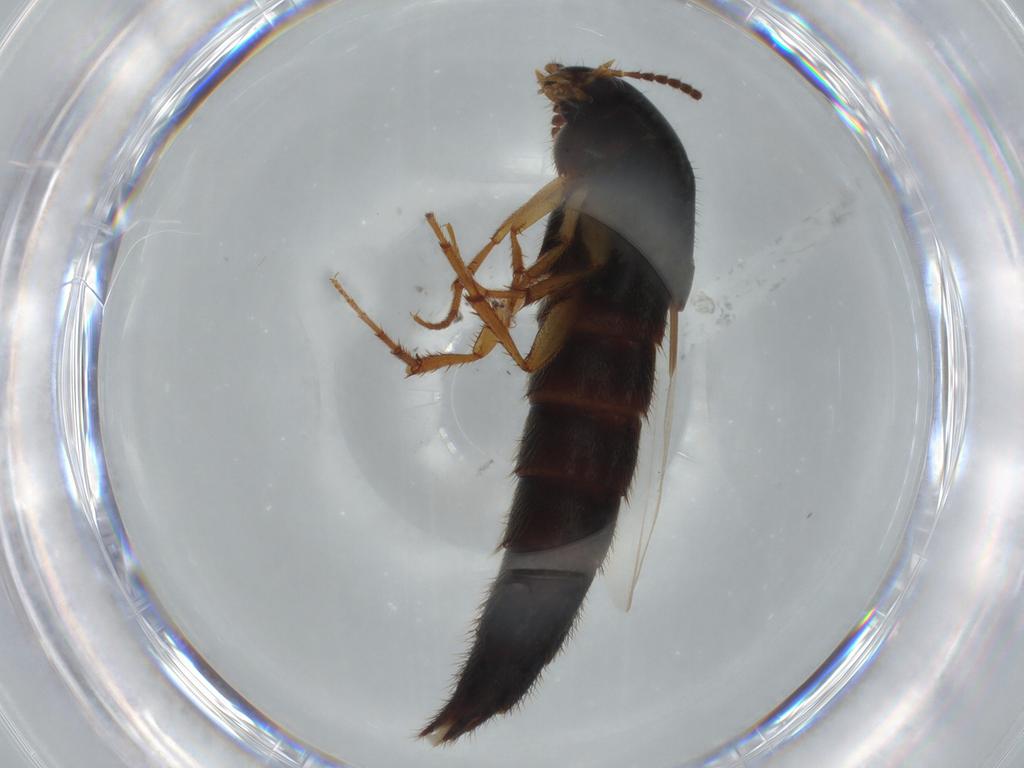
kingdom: Animalia
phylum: Arthropoda
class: Insecta
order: Coleoptera
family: Staphylinidae
